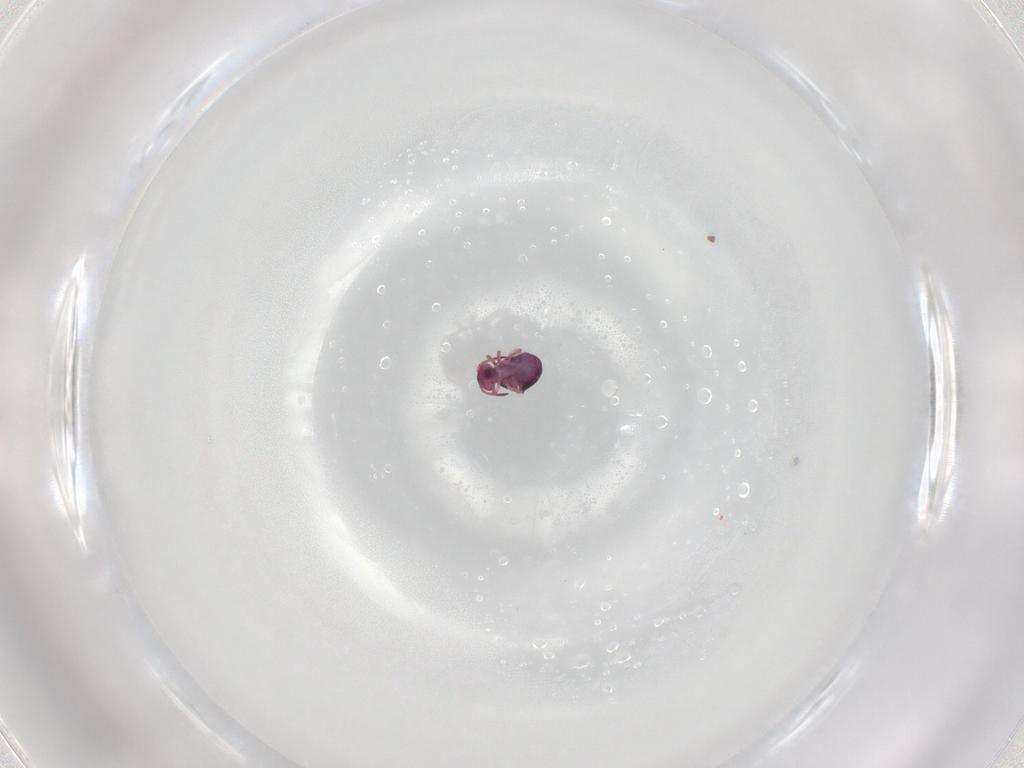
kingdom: Animalia
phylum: Arthropoda
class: Collembola
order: Symphypleona
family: Sminthurididae
